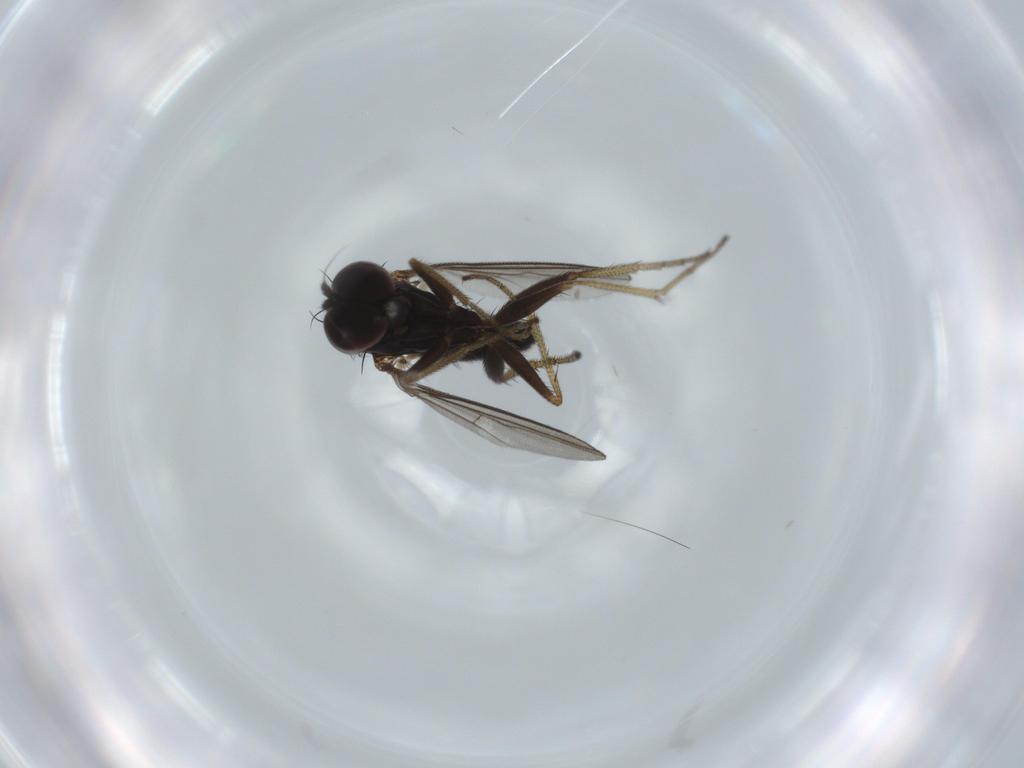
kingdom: Animalia
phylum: Arthropoda
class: Insecta
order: Diptera
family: Dolichopodidae
